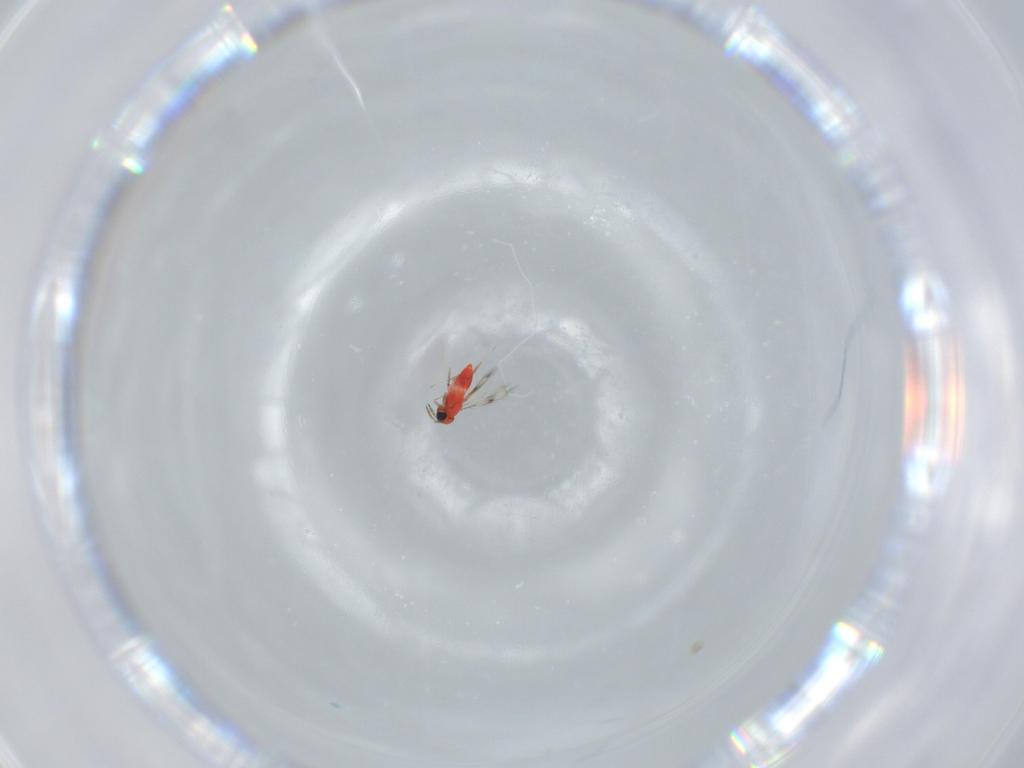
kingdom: Animalia
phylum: Arthropoda
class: Insecta
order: Hymenoptera
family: Trichogrammatidae
